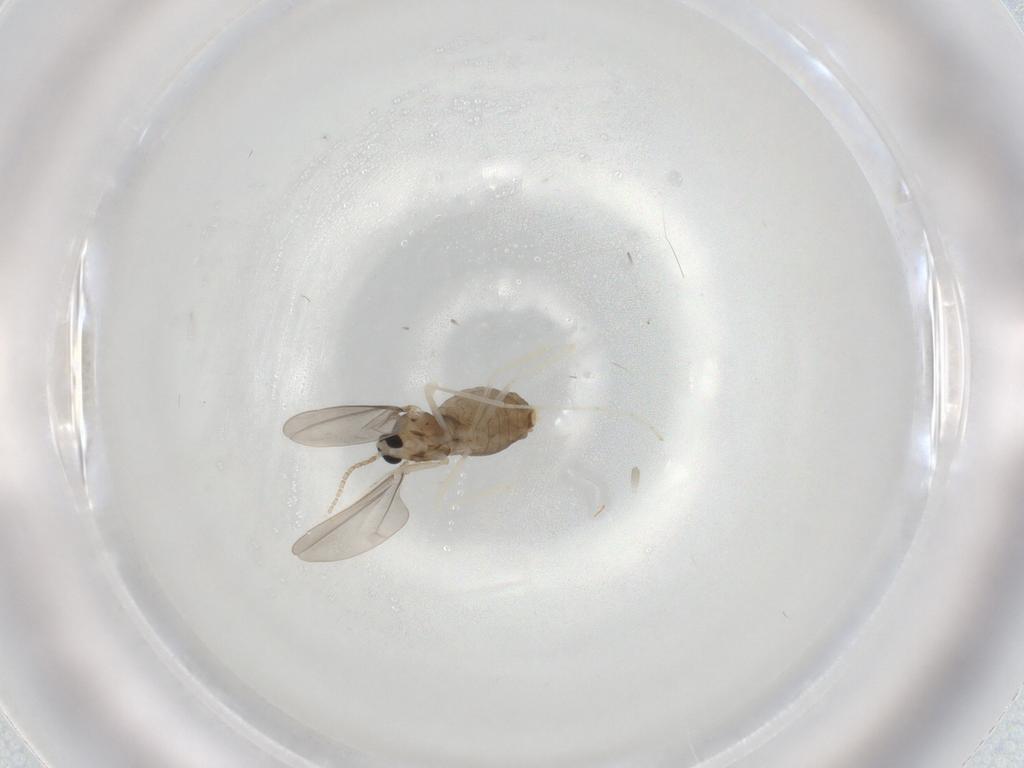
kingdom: Animalia
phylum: Arthropoda
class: Insecta
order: Diptera
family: Cecidomyiidae
